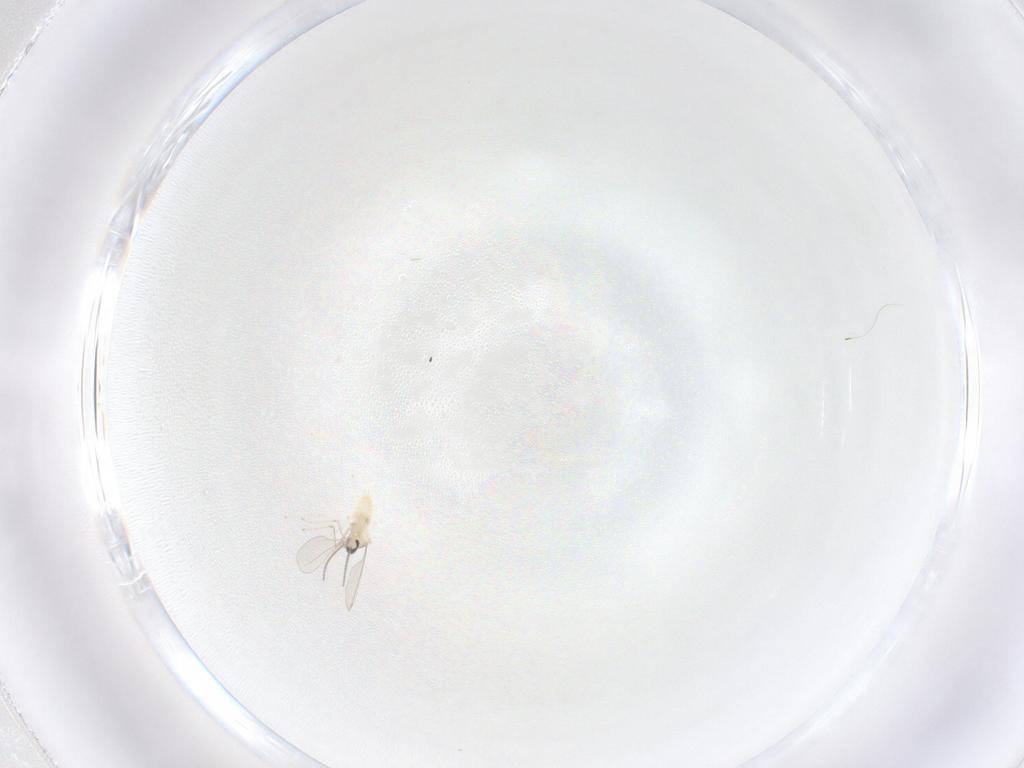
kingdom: Animalia
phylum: Arthropoda
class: Insecta
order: Diptera
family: Cecidomyiidae
